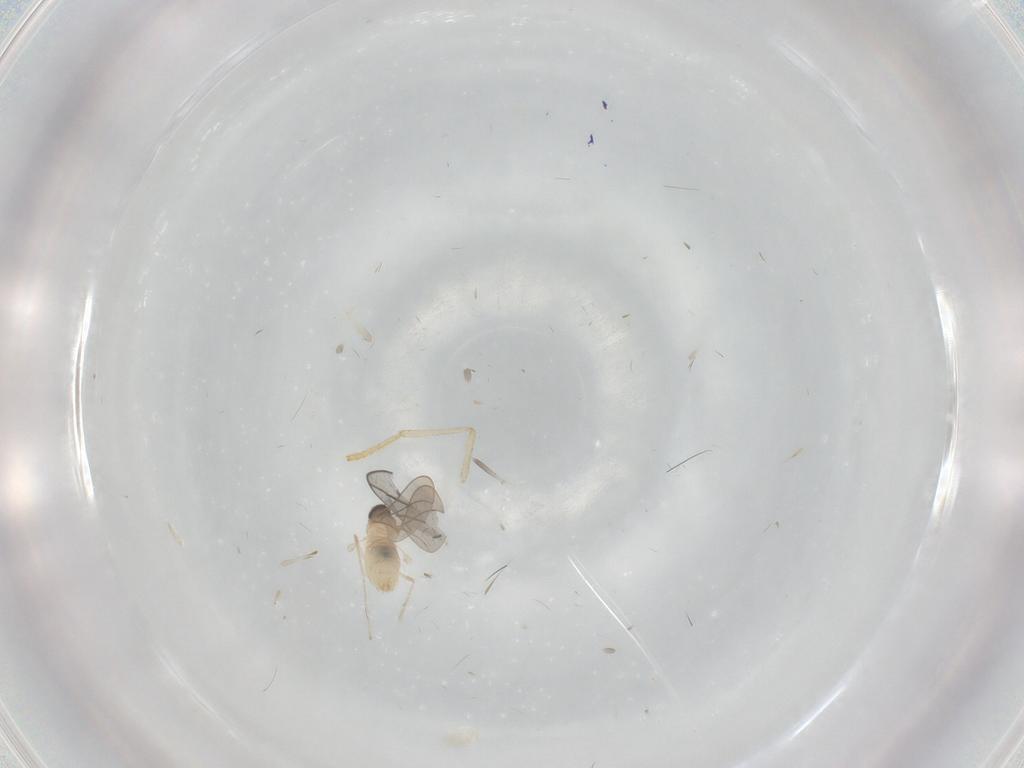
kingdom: Animalia
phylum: Arthropoda
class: Insecta
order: Diptera
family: Cecidomyiidae
